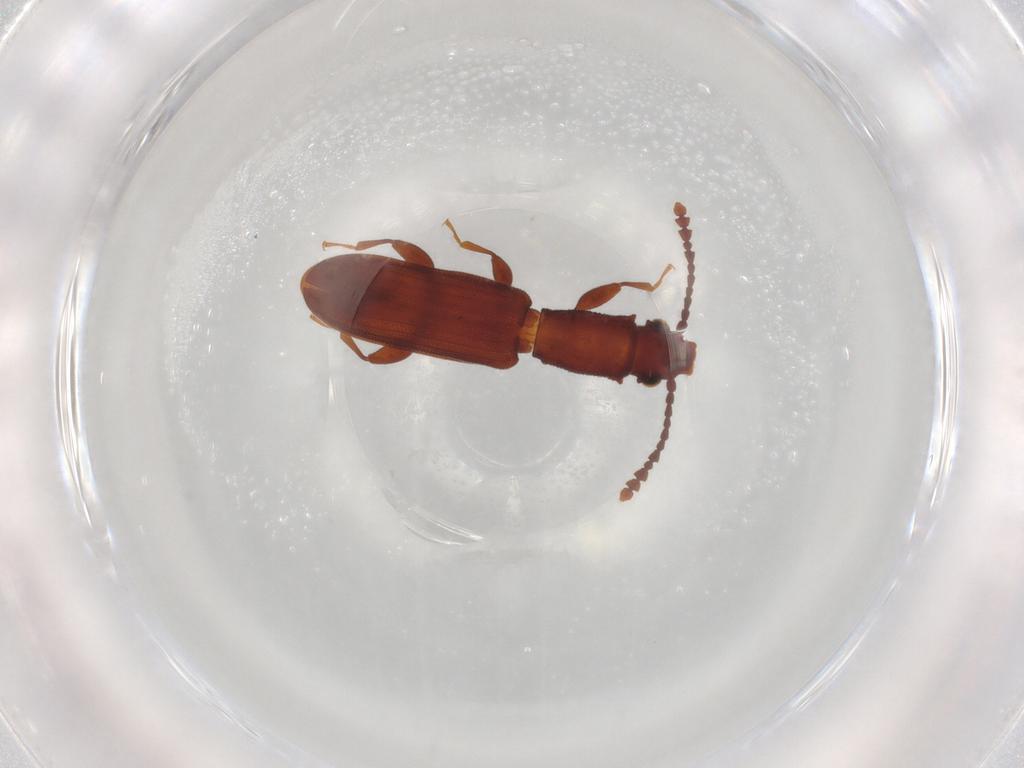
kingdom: Animalia
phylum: Arthropoda
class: Insecta
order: Coleoptera
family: Silvanidae
